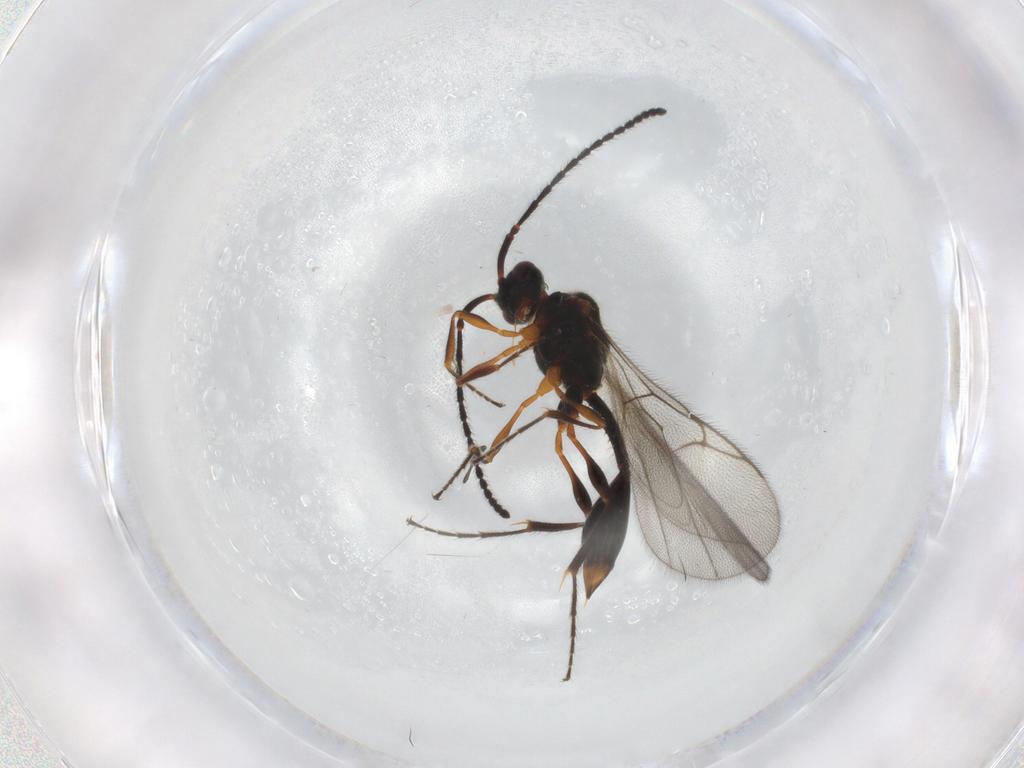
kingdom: Animalia
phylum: Arthropoda
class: Insecta
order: Hymenoptera
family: Diapriidae
